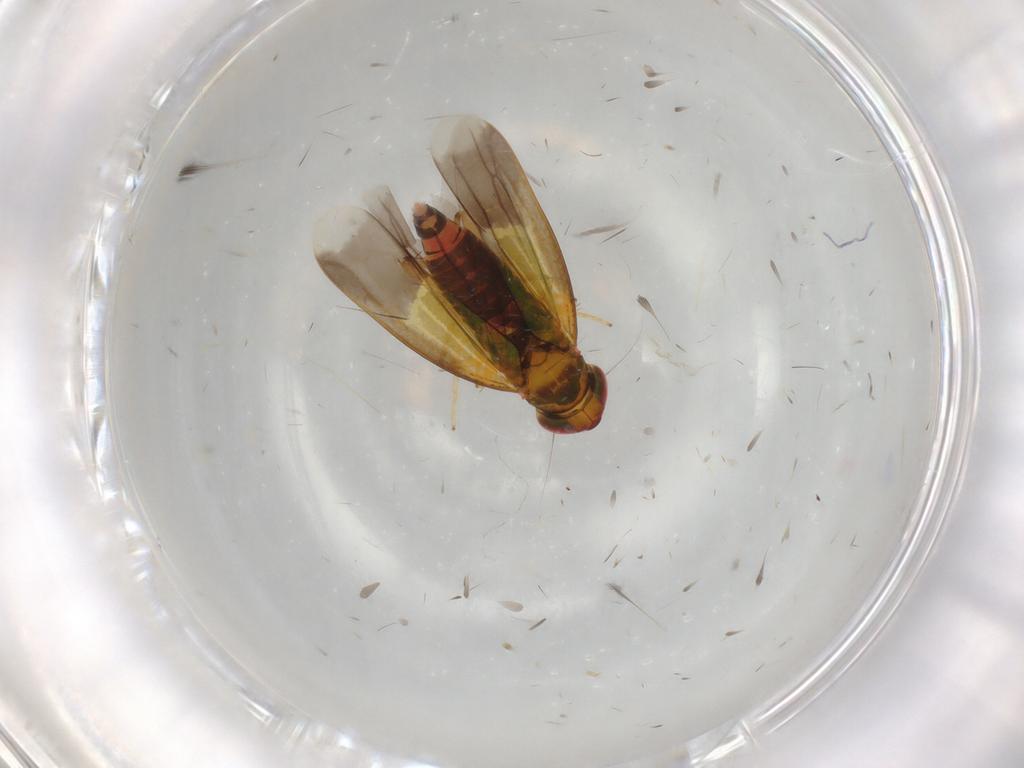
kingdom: Animalia
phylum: Arthropoda
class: Insecta
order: Hemiptera
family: Cicadellidae
